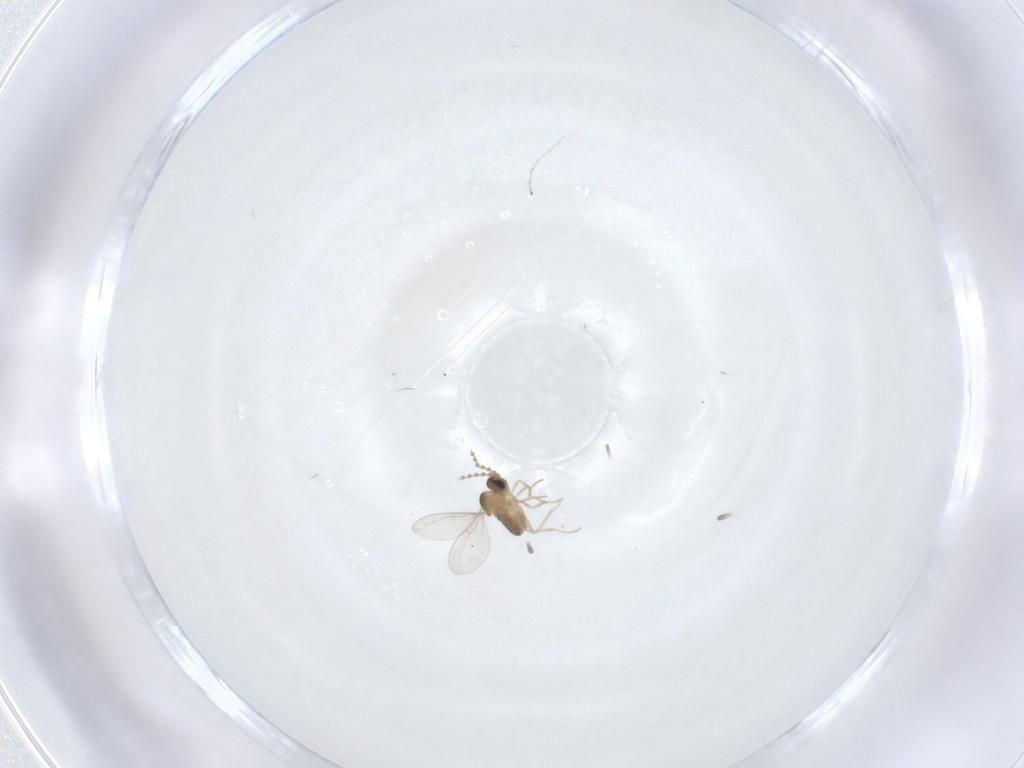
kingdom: Animalia
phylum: Arthropoda
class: Insecta
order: Diptera
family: Cecidomyiidae
